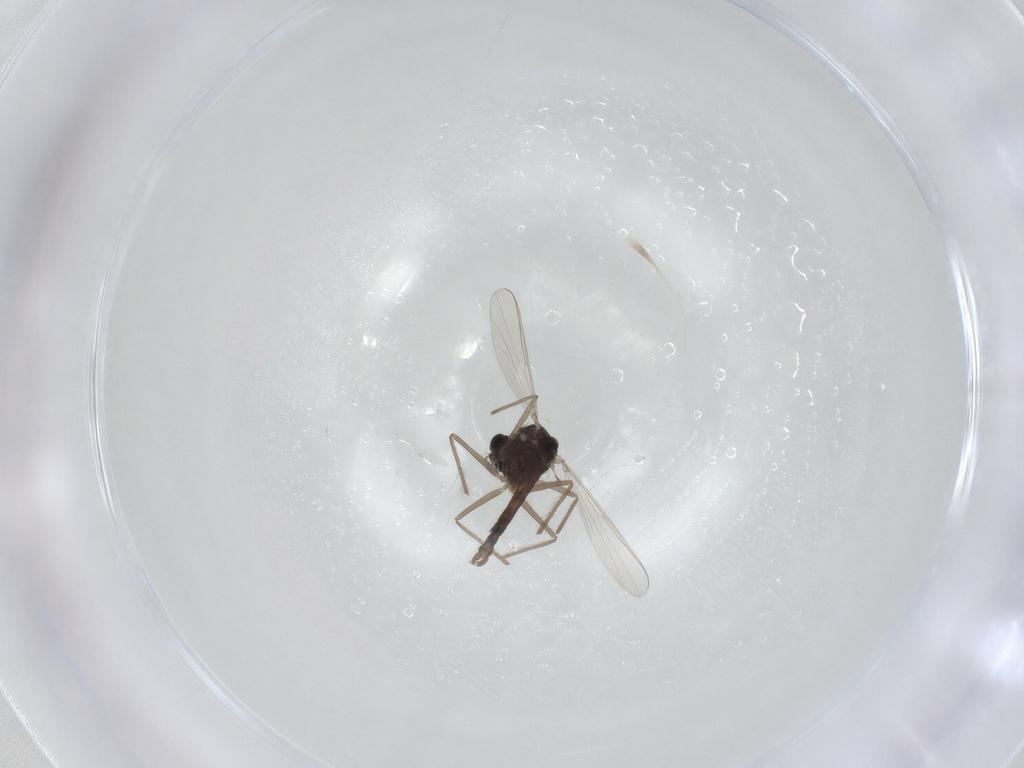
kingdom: Animalia
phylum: Arthropoda
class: Insecta
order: Diptera
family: Chironomidae
